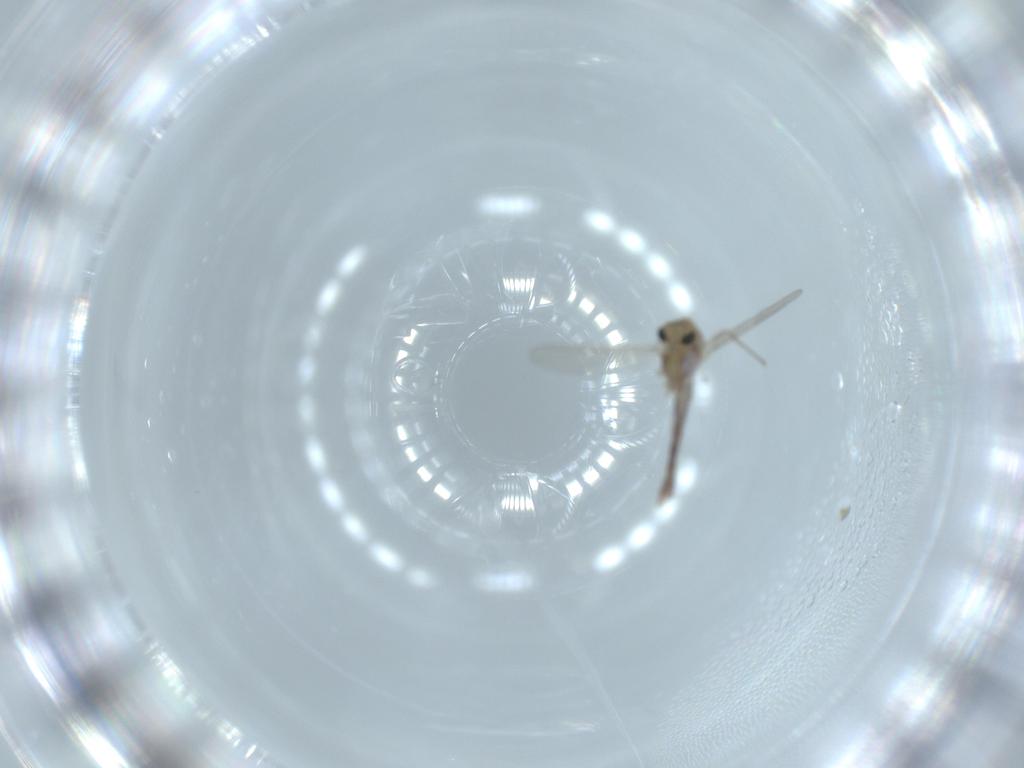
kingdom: Animalia
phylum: Arthropoda
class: Insecta
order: Diptera
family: Chironomidae
